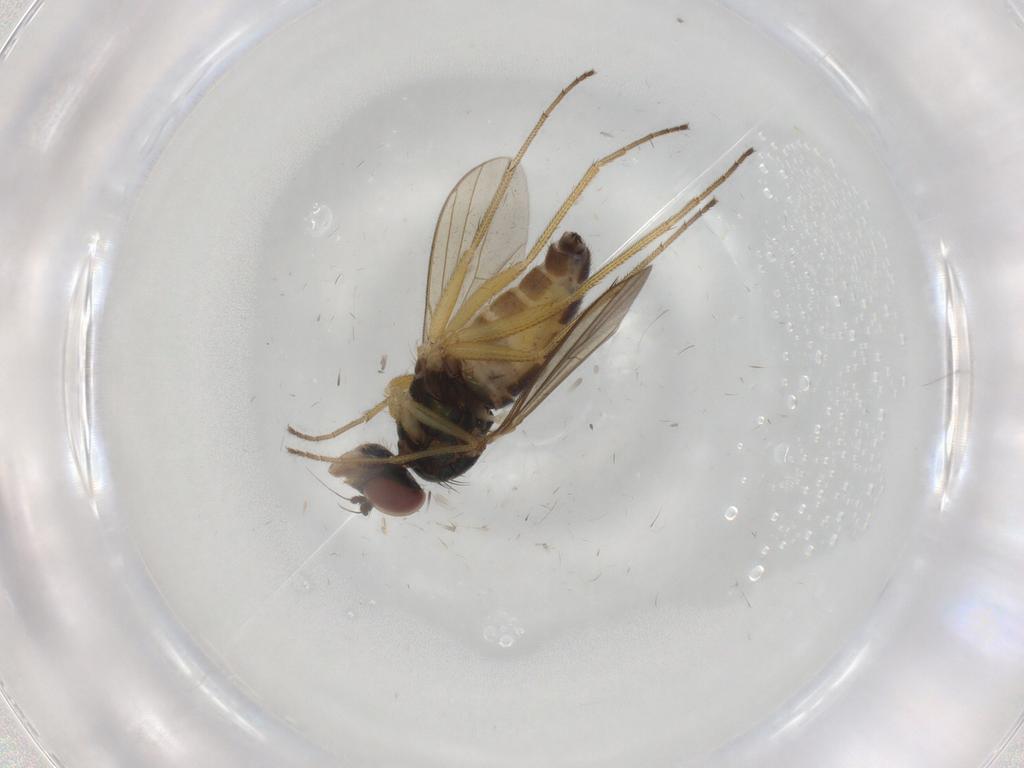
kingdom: Animalia
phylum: Arthropoda
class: Insecta
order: Diptera
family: Dolichopodidae
